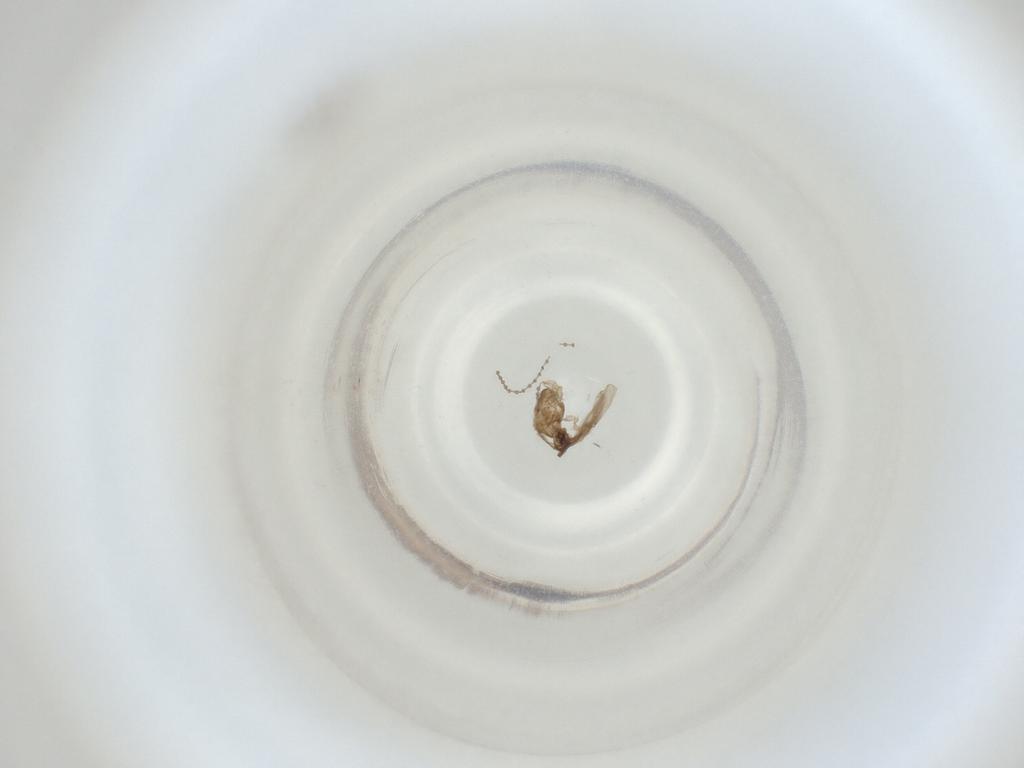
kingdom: Animalia
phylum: Arthropoda
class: Insecta
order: Diptera
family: Cecidomyiidae
